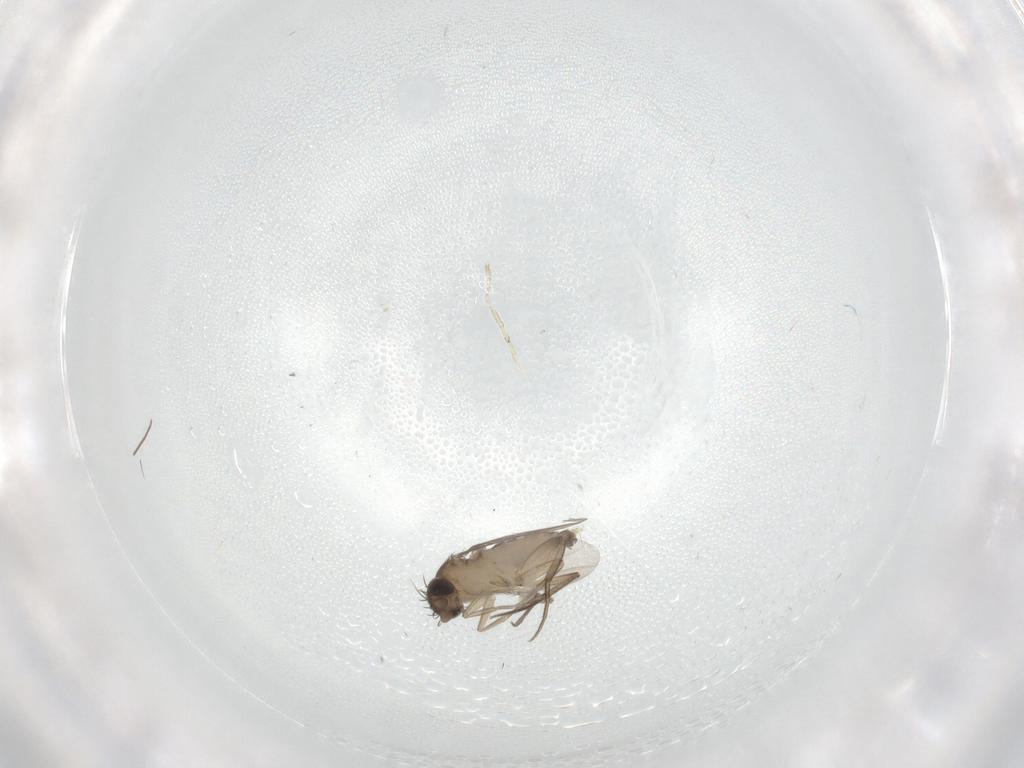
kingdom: Animalia
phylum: Arthropoda
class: Insecta
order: Diptera
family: Phoridae
